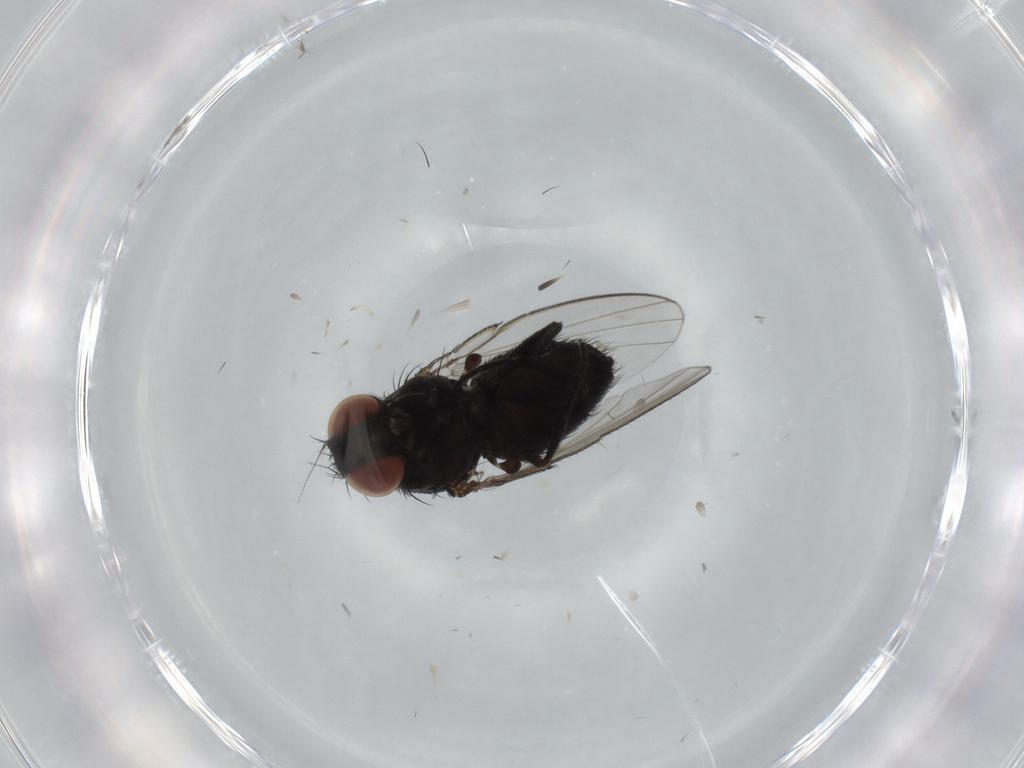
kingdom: Animalia
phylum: Arthropoda
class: Insecta
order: Diptera
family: Milichiidae
